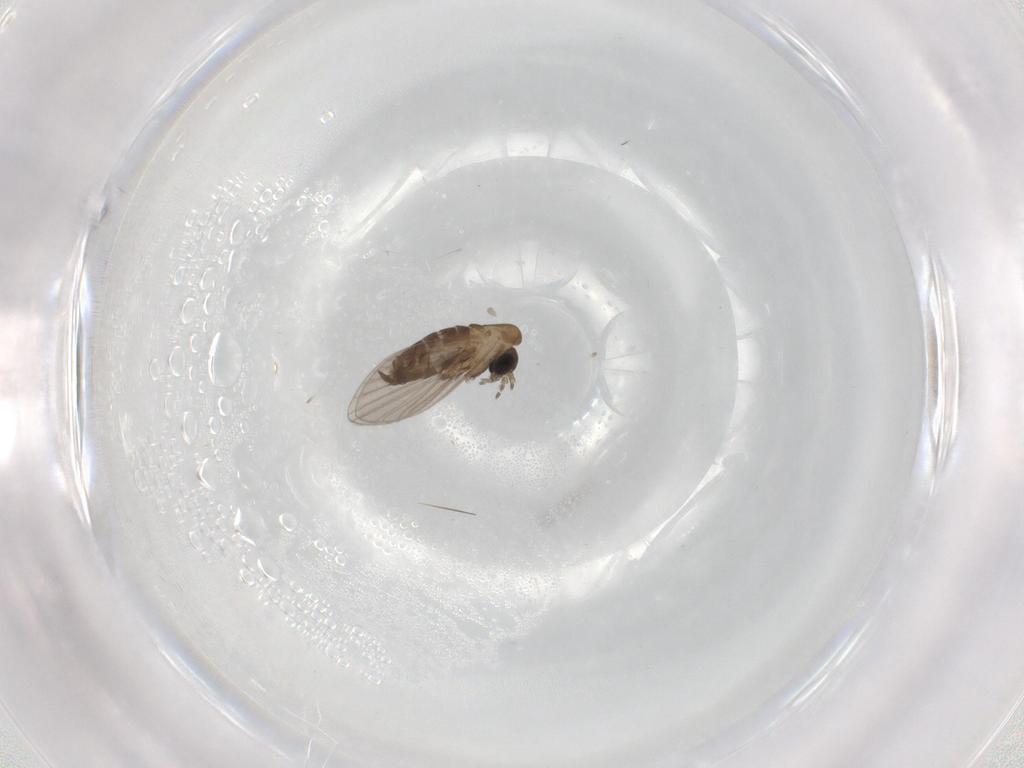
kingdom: Animalia
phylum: Arthropoda
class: Insecta
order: Diptera
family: Psychodidae
